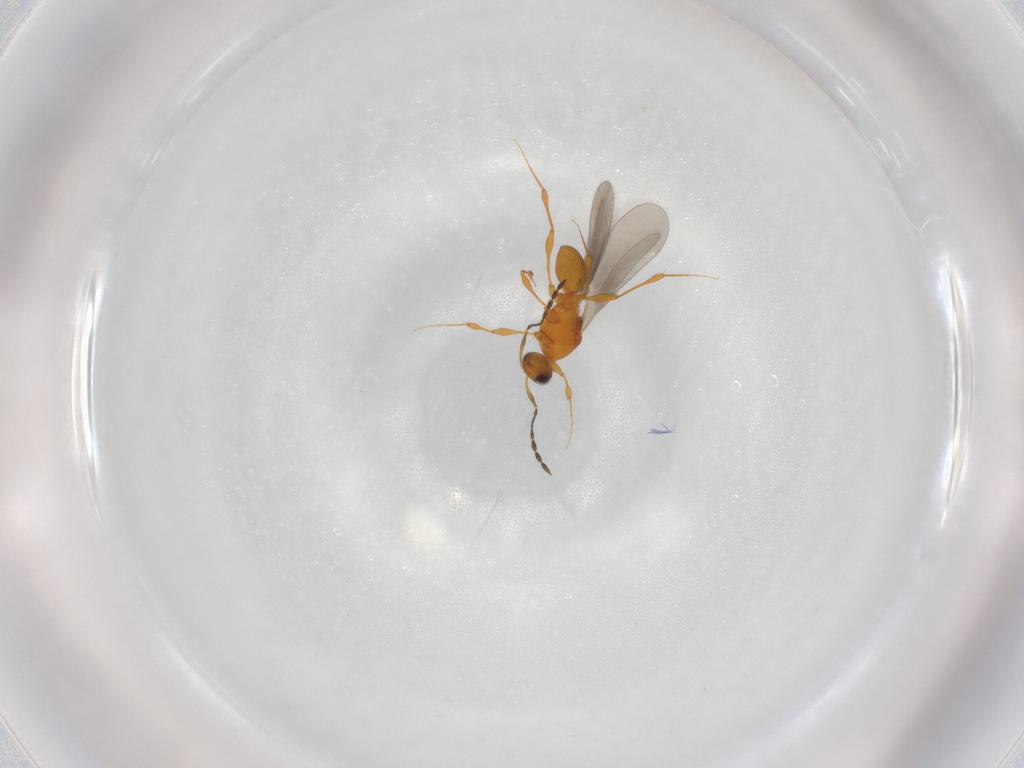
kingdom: Animalia
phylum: Arthropoda
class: Insecta
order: Hymenoptera
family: Platygastridae
